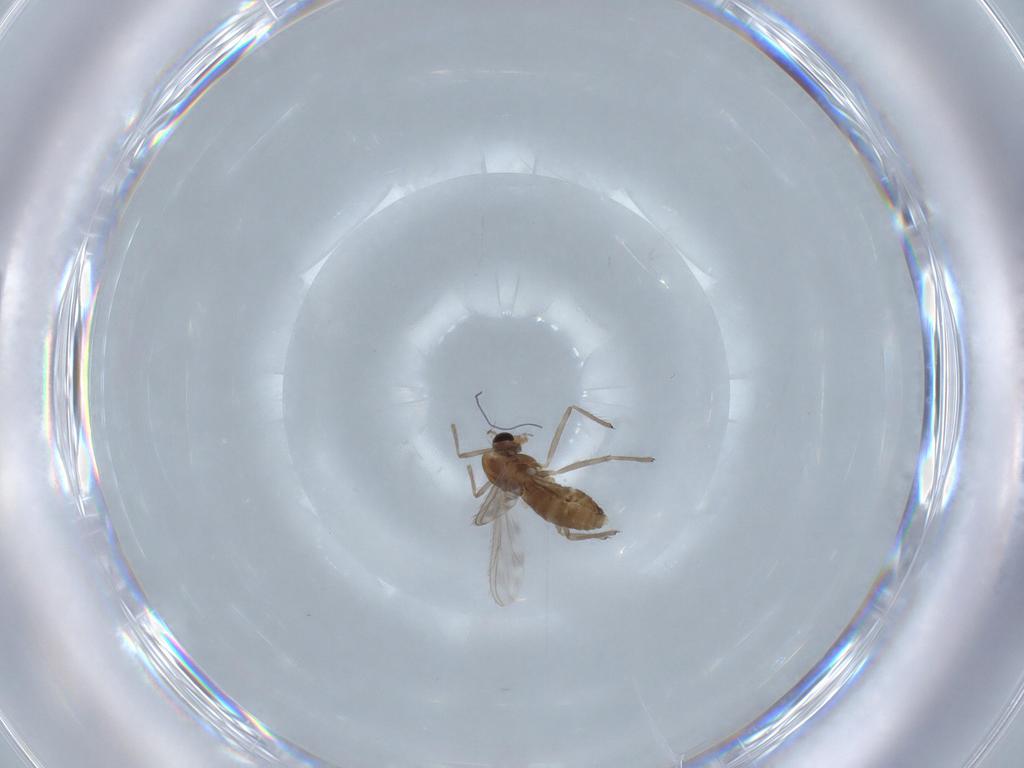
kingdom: Animalia
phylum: Arthropoda
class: Insecta
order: Diptera
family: Chironomidae
